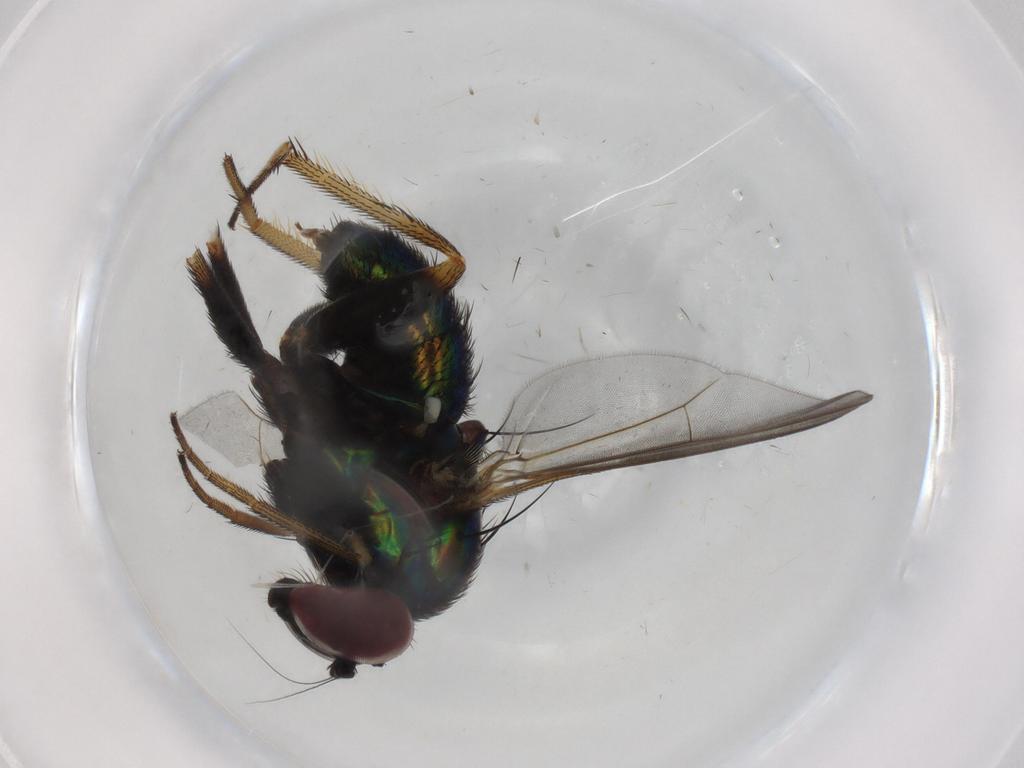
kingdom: Animalia
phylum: Arthropoda
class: Insecta
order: Diptera
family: Dolichopodidae
